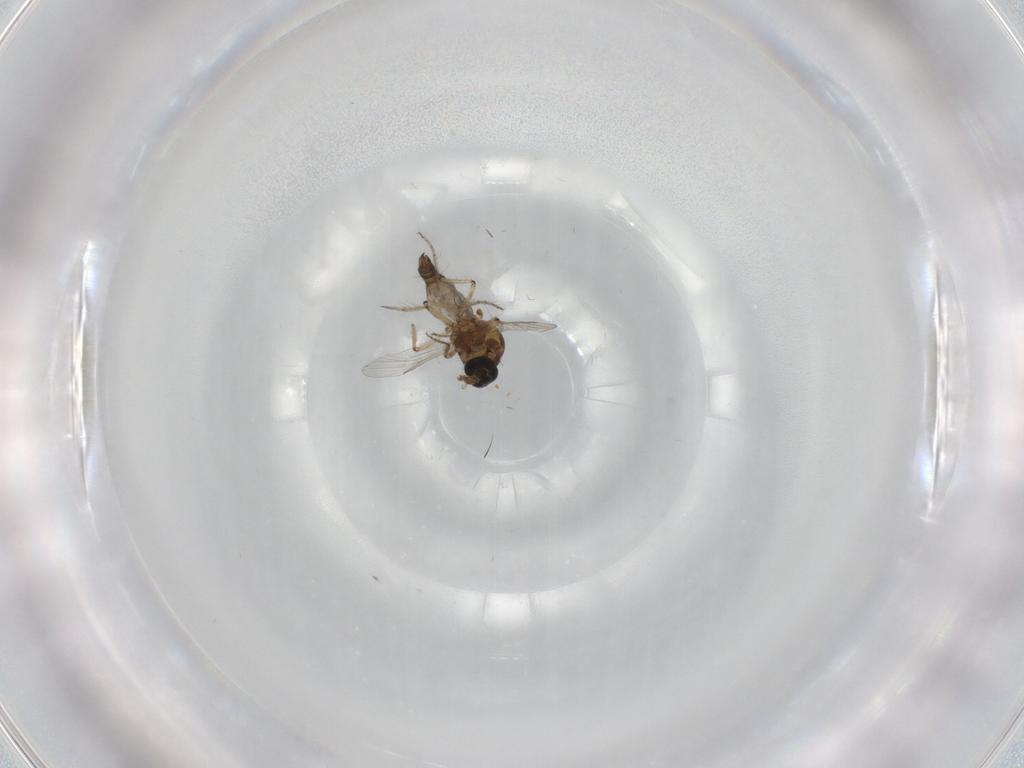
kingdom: Animalia
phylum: Arthropoda
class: Insecta
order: Diptera
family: Ceratopogonidae
